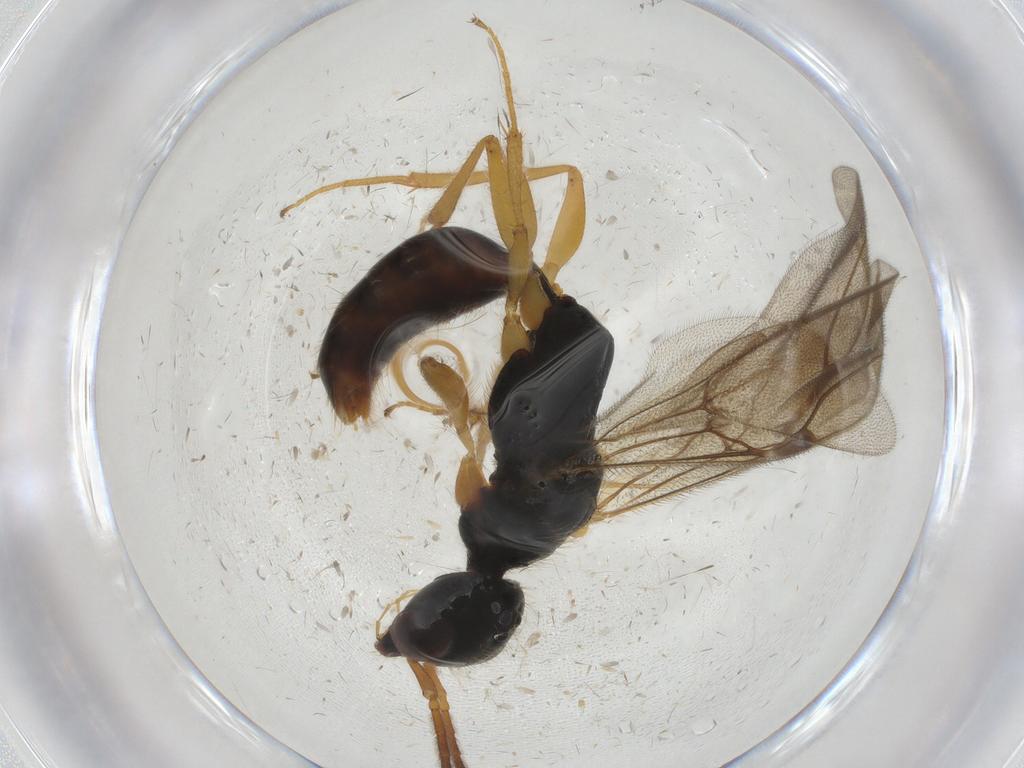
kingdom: Animalia
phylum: Arthropoda
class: Insecta
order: Hymenoptera
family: Bethylidae
